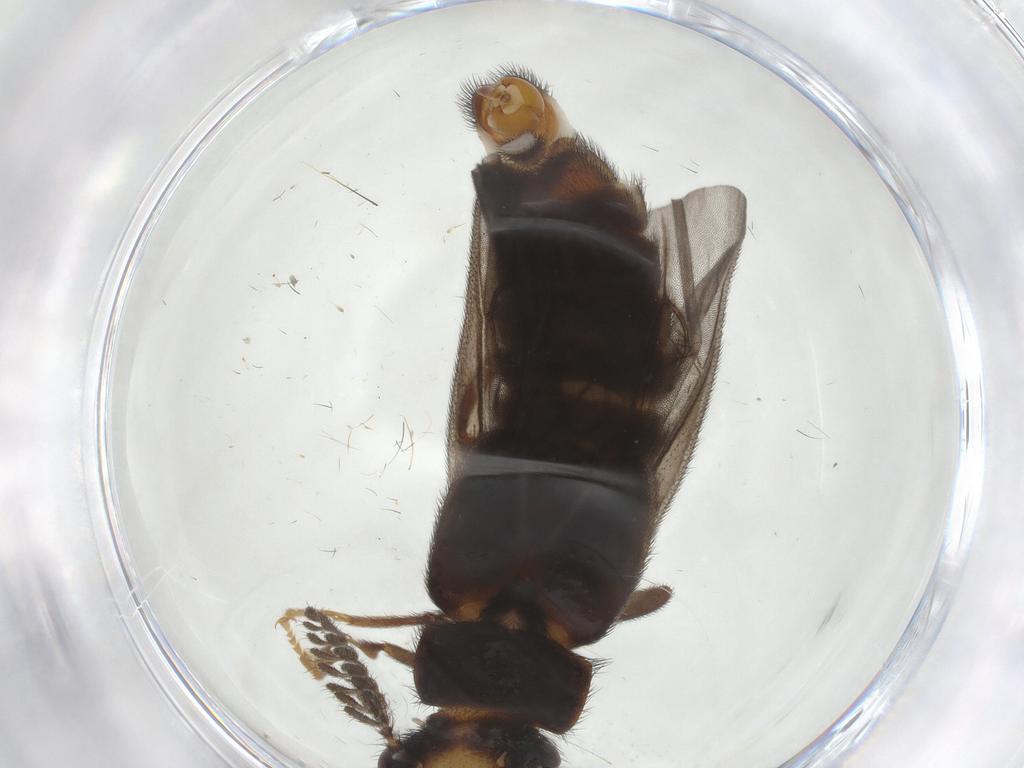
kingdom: Animalia
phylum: Arthropoda
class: Insecta
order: Coleoptera
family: Phengodidae
